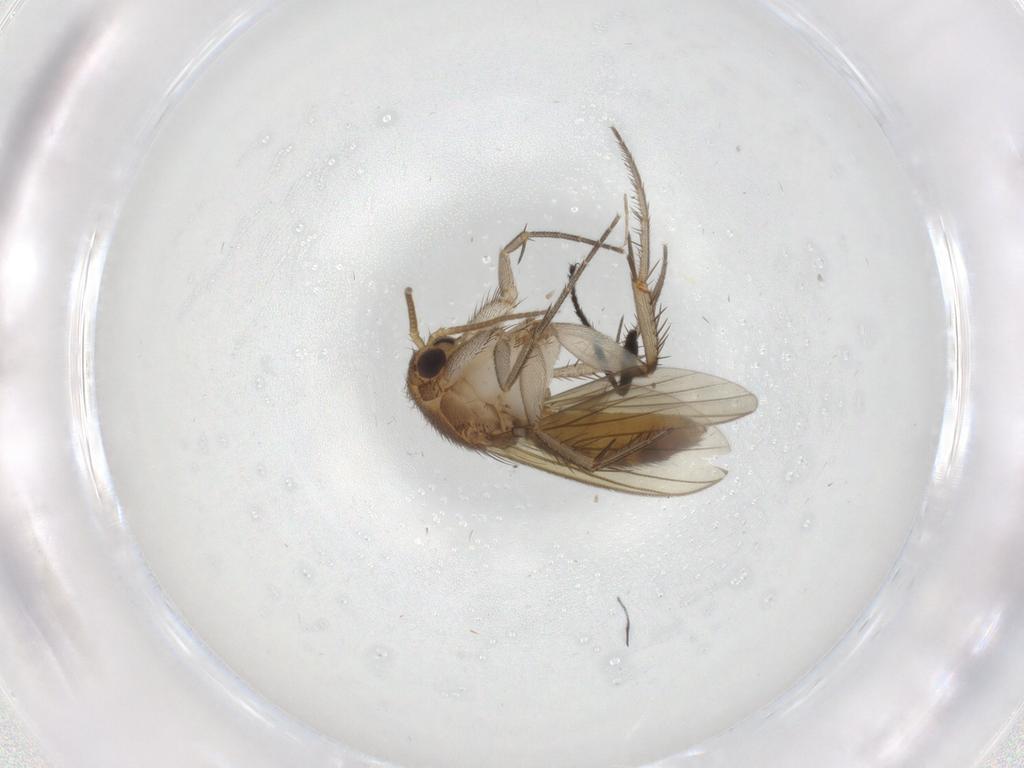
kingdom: Animalia
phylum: Arthropoda
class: Insecta
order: Diptera
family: Milichiidae
